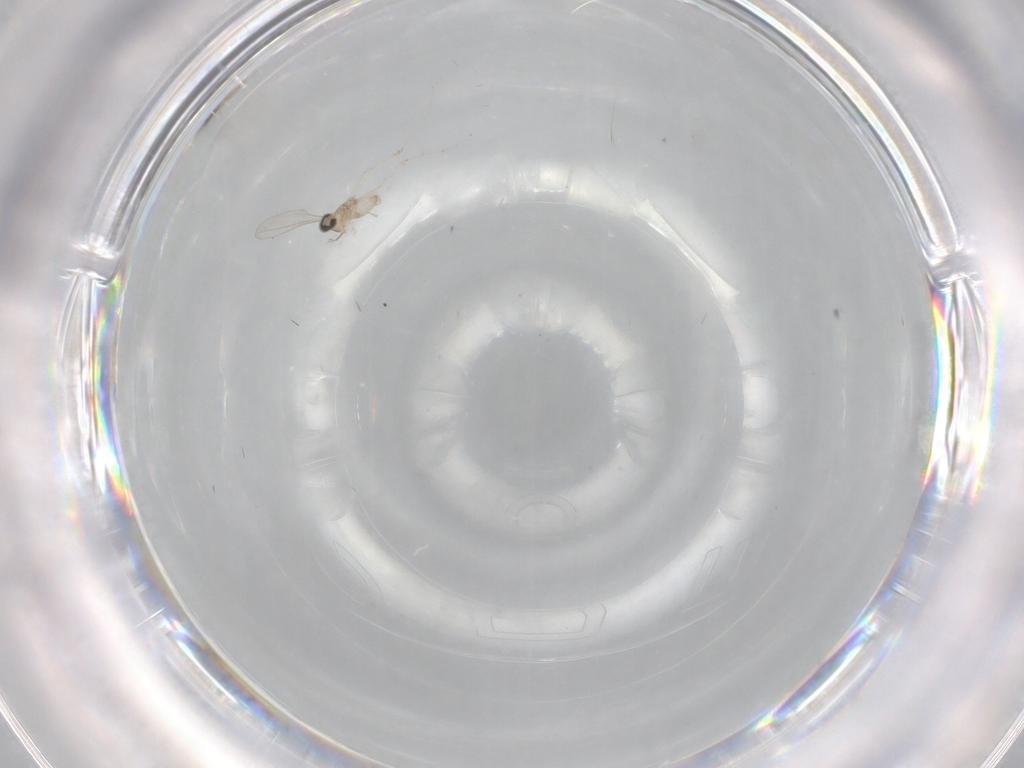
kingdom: Animalia
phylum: Arthropoda
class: Insecta
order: Diptera
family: Cecidomyiidae
